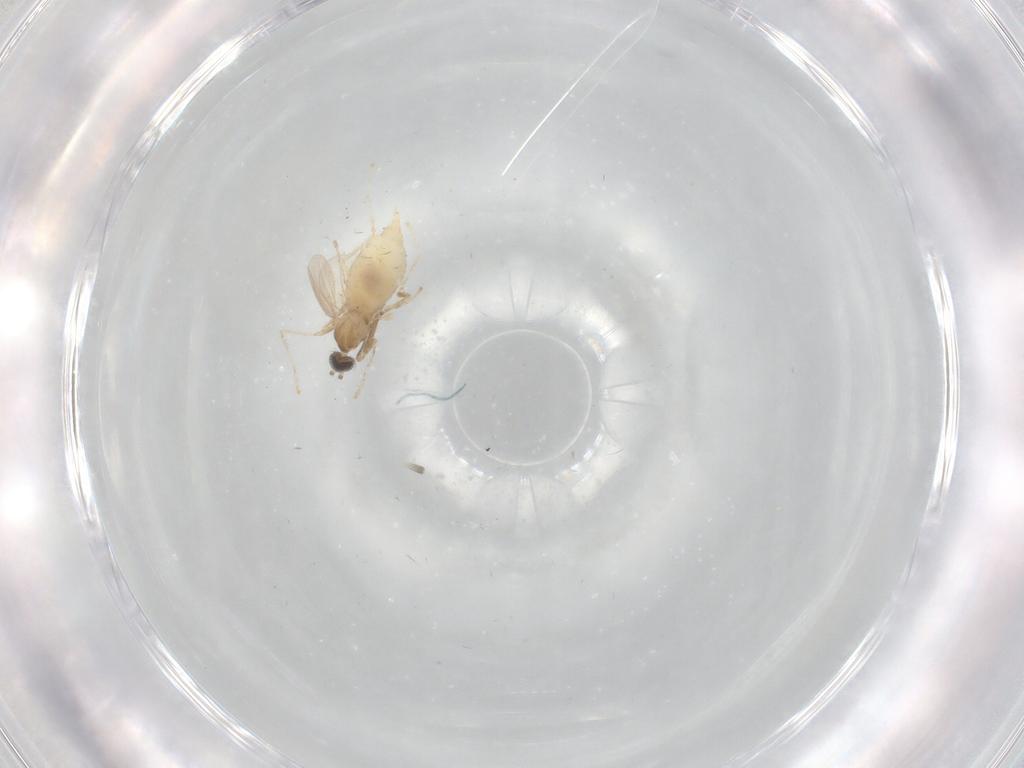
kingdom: Animalia
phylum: Arthropoda
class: Insecta
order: Diptera
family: Cecidomyiidae
